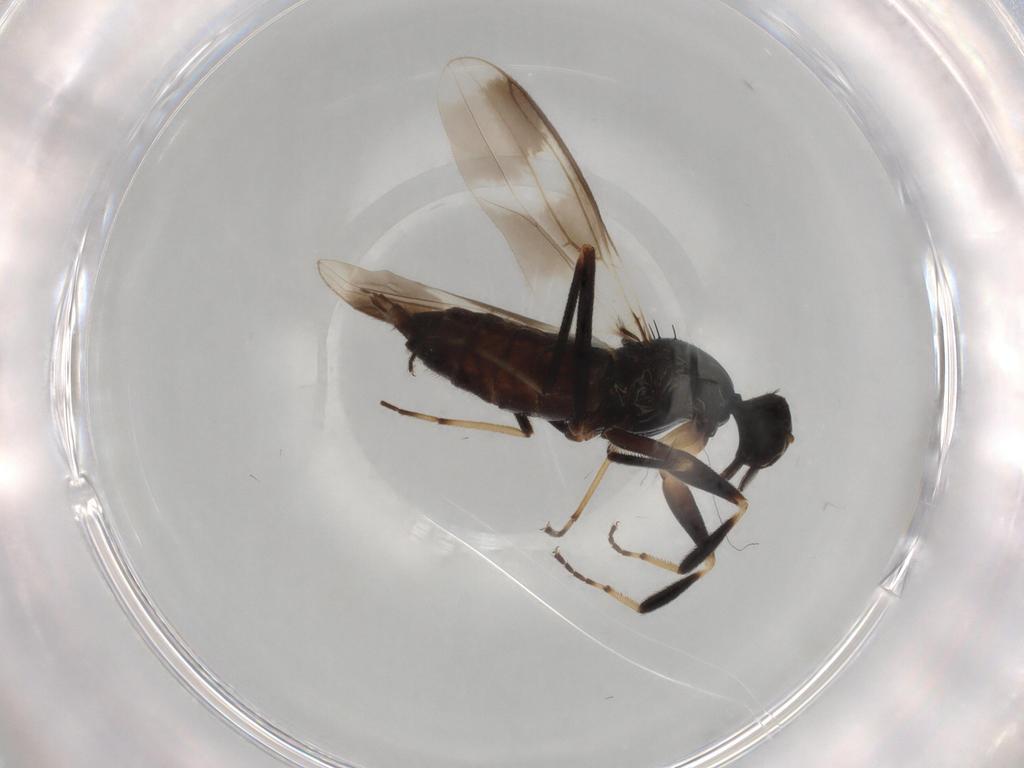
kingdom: Animalia
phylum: Arthropoda
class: Insecta
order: Diptera
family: Hybotidae
